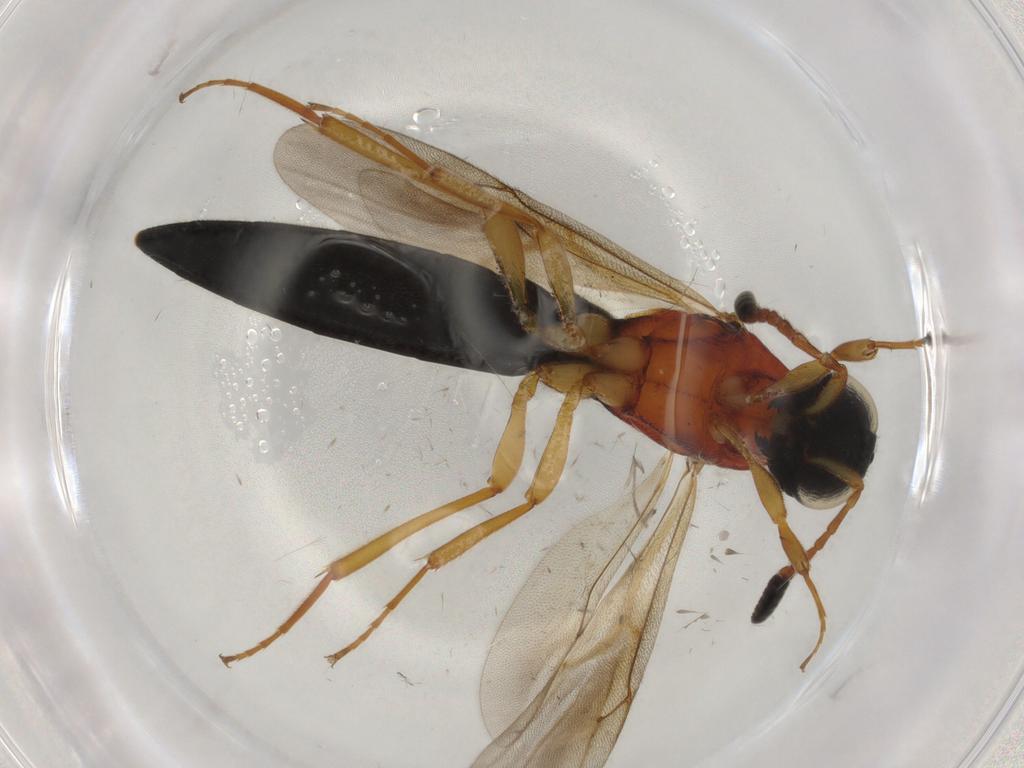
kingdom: Animalia
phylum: Arthropoda
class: Insecta
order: Hymenoptera
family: Scelionidae
